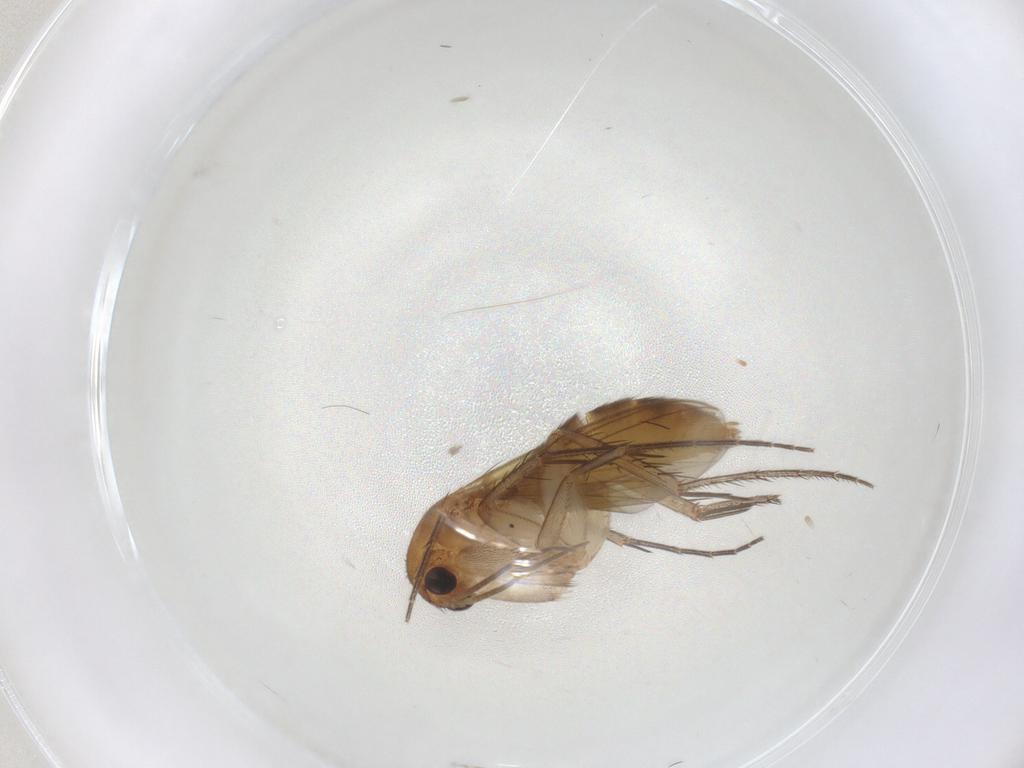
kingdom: Animalia
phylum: Arthropoda
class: Insecta
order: Diptera
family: Mycetophilidae
